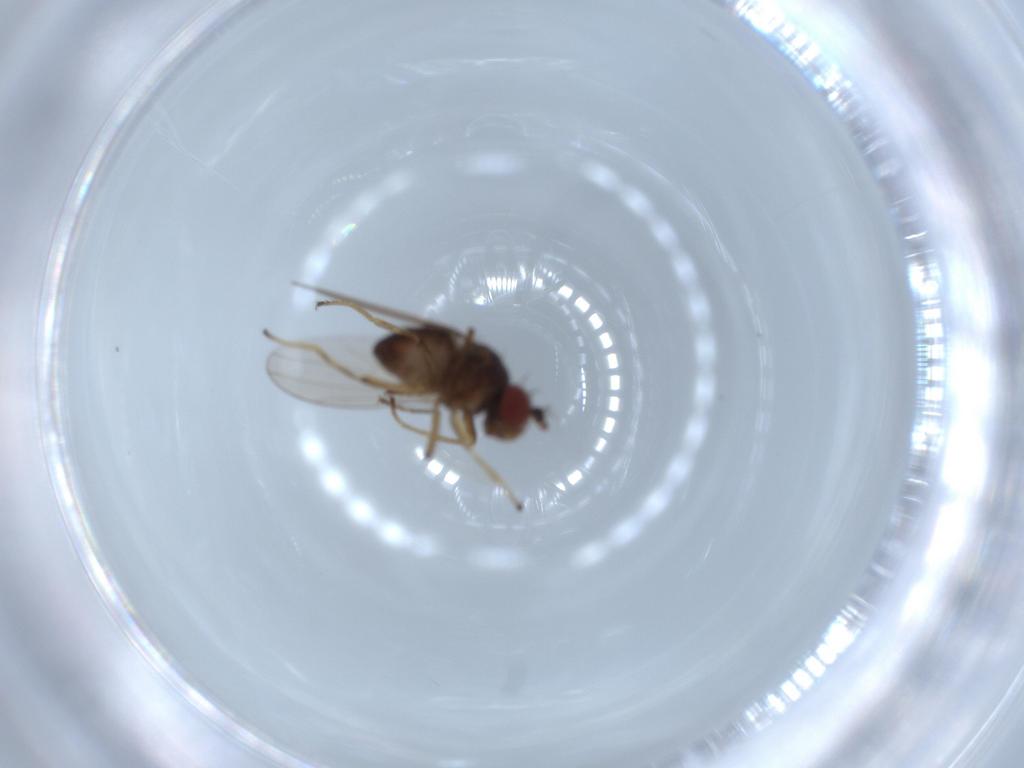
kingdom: Animalia
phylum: Arthropoda
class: Insecta
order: Diptera
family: Ephydridae
